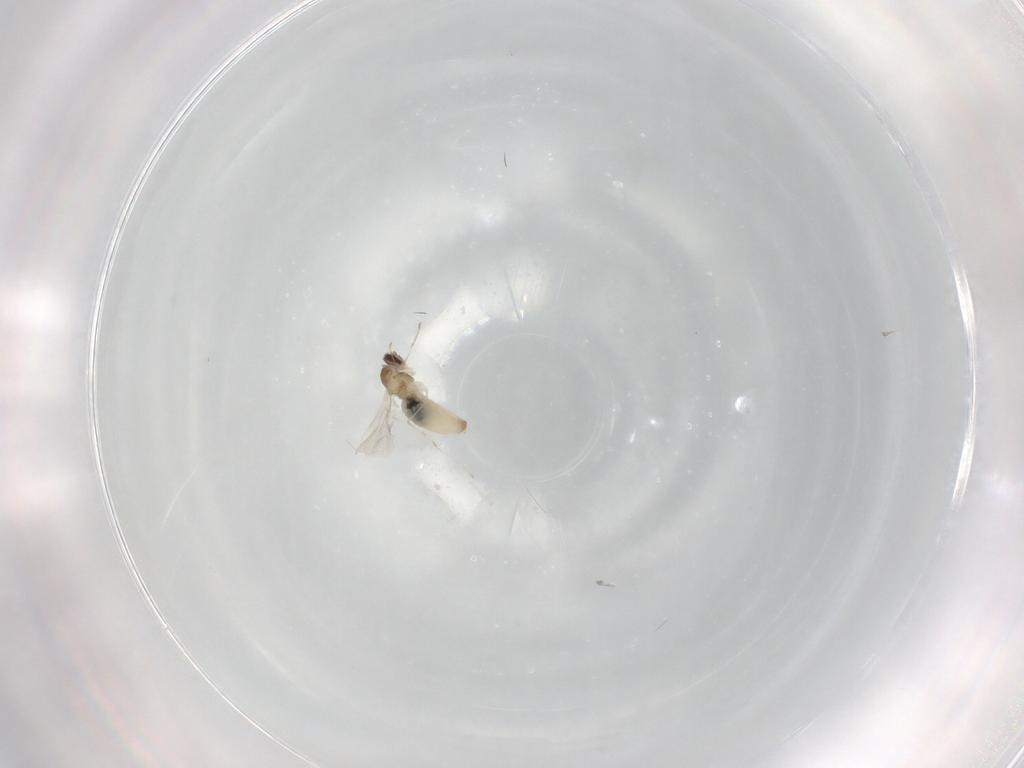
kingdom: Animalia
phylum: Arthropoda
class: Insecta
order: Diptera
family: Cecidomyiidae
